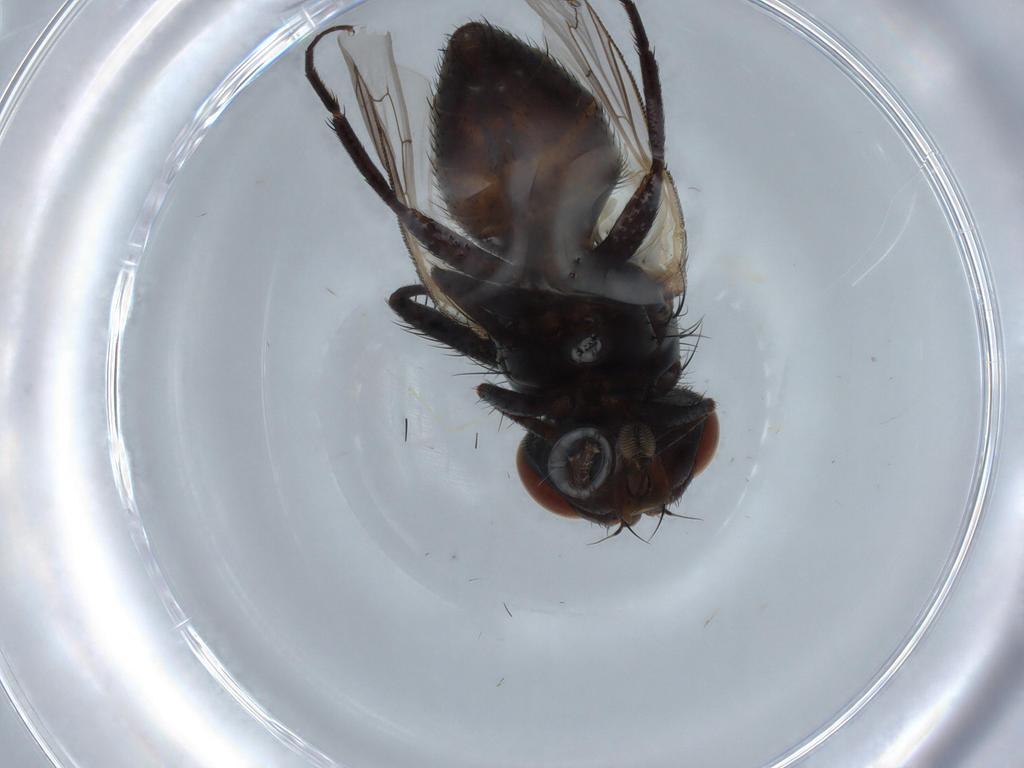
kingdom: Animalia
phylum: Arthropoda
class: Insecta
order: Diptera
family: Sarcophagidae
